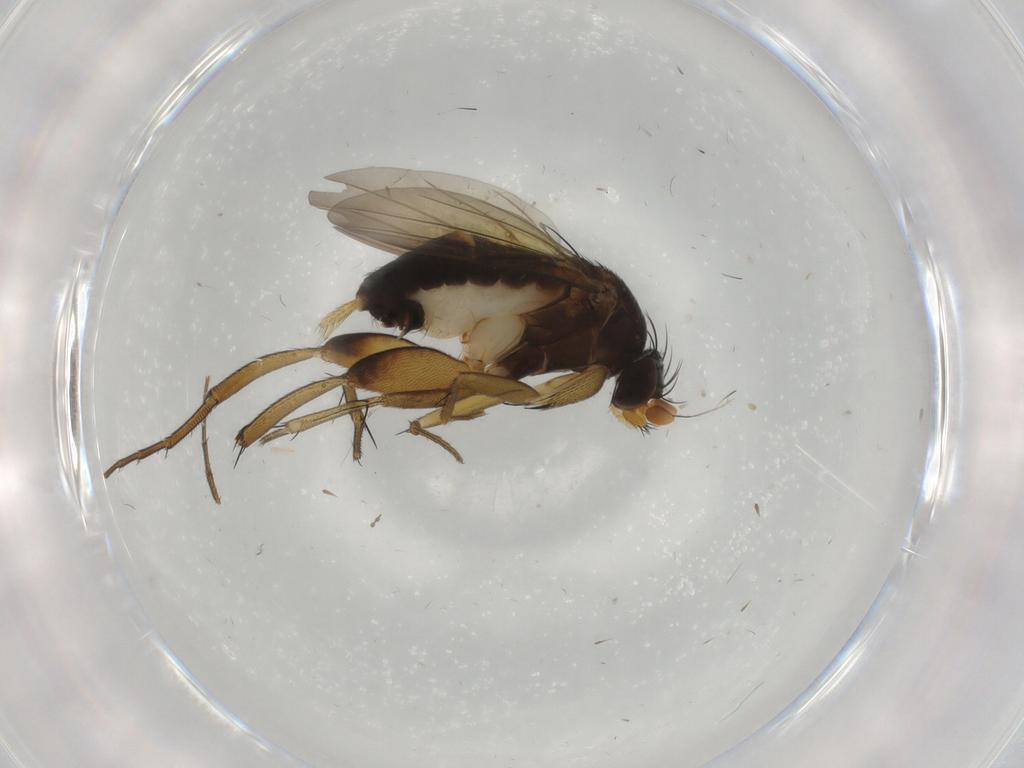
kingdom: Animalia
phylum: Arthropoda
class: Insecta
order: Diptera
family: Phoridae
